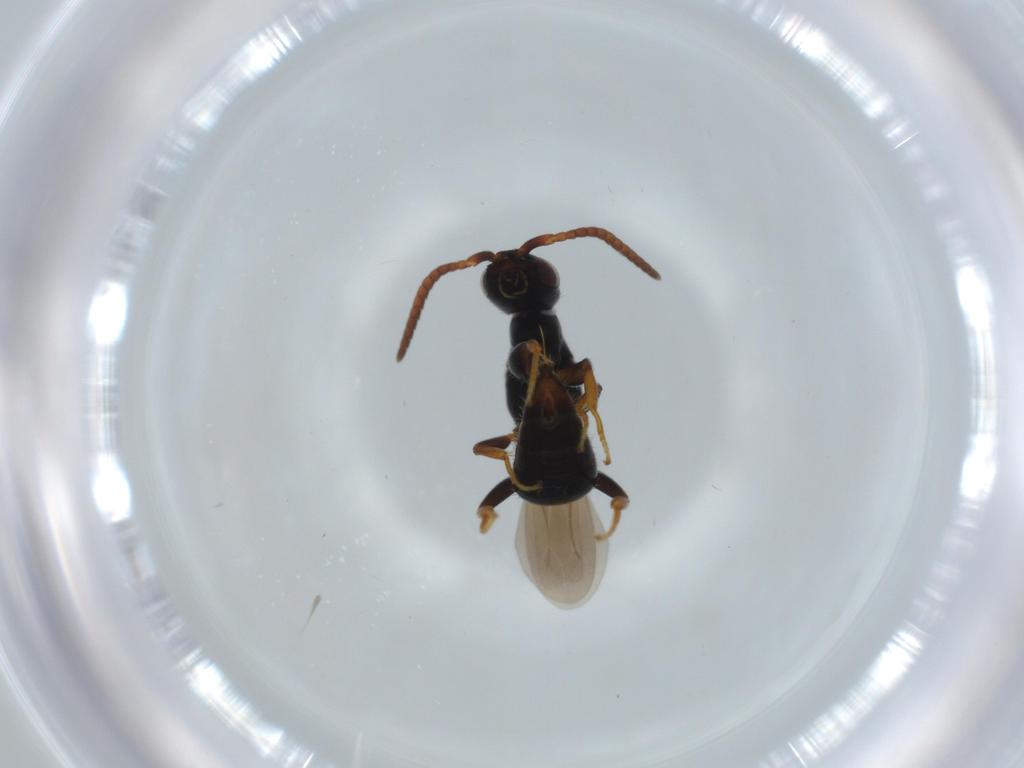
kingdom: Animalia
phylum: Arthropoda
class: Insecta
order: Hymenoptera
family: Bethylidae
